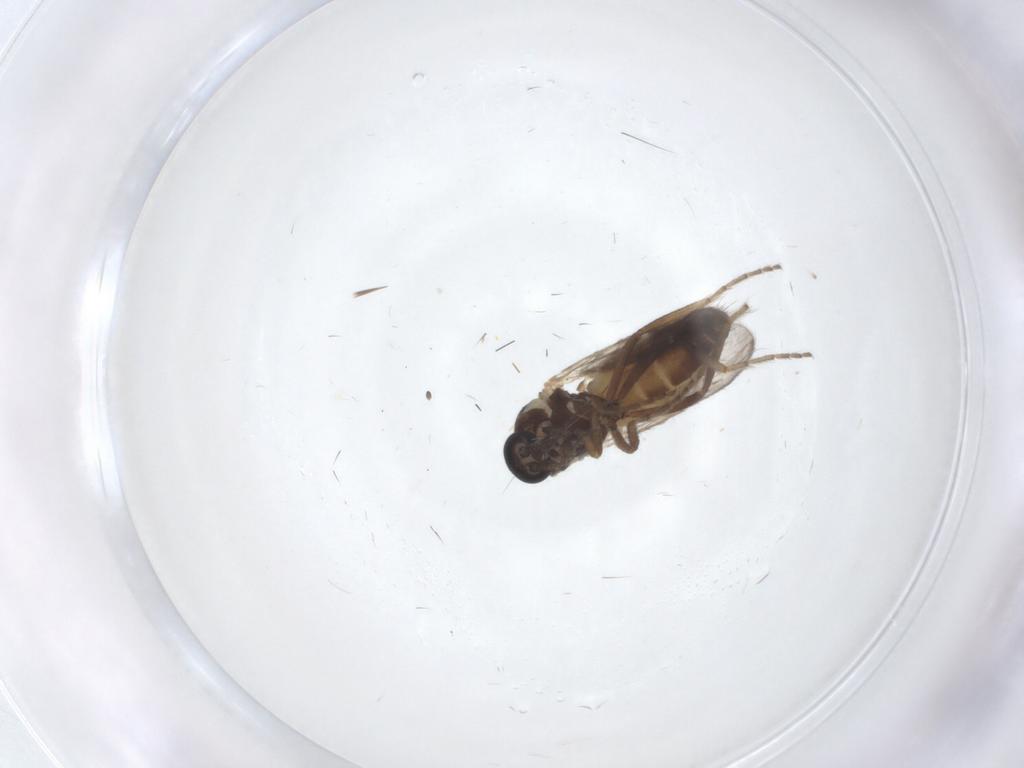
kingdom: Animalia
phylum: Arthropoda
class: Insecta
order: Diptera
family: Ceratopogonidae
